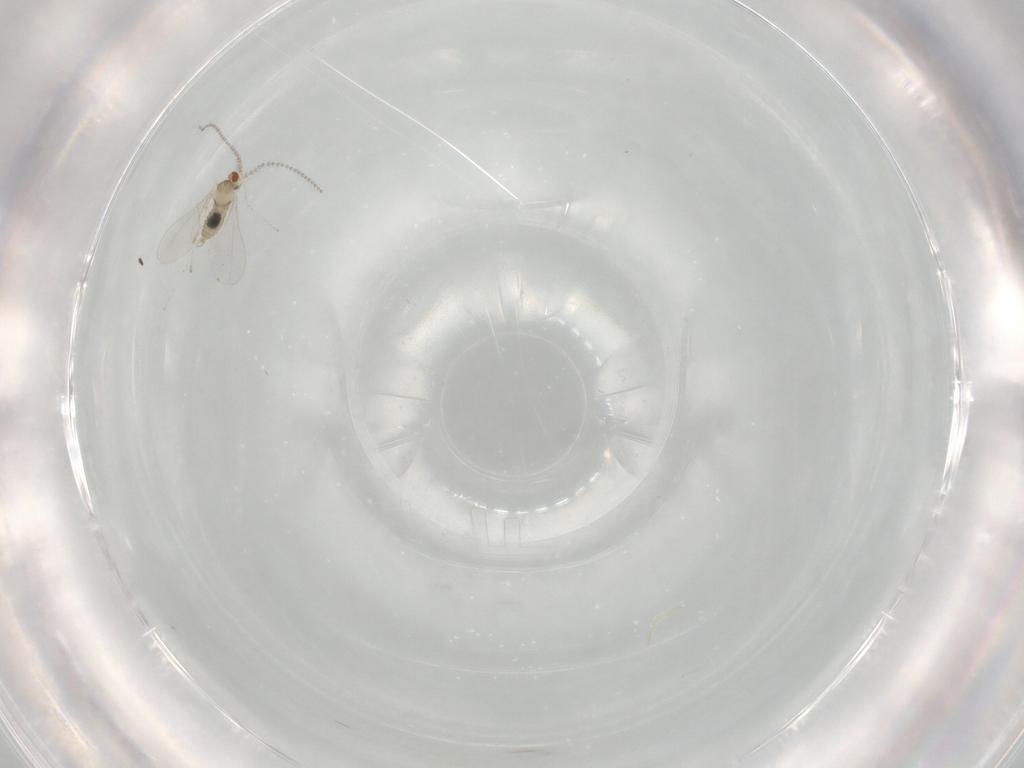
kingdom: Animalia
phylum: Arthropoda
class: Insecta
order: Diptera
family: Cecidomyiidae
